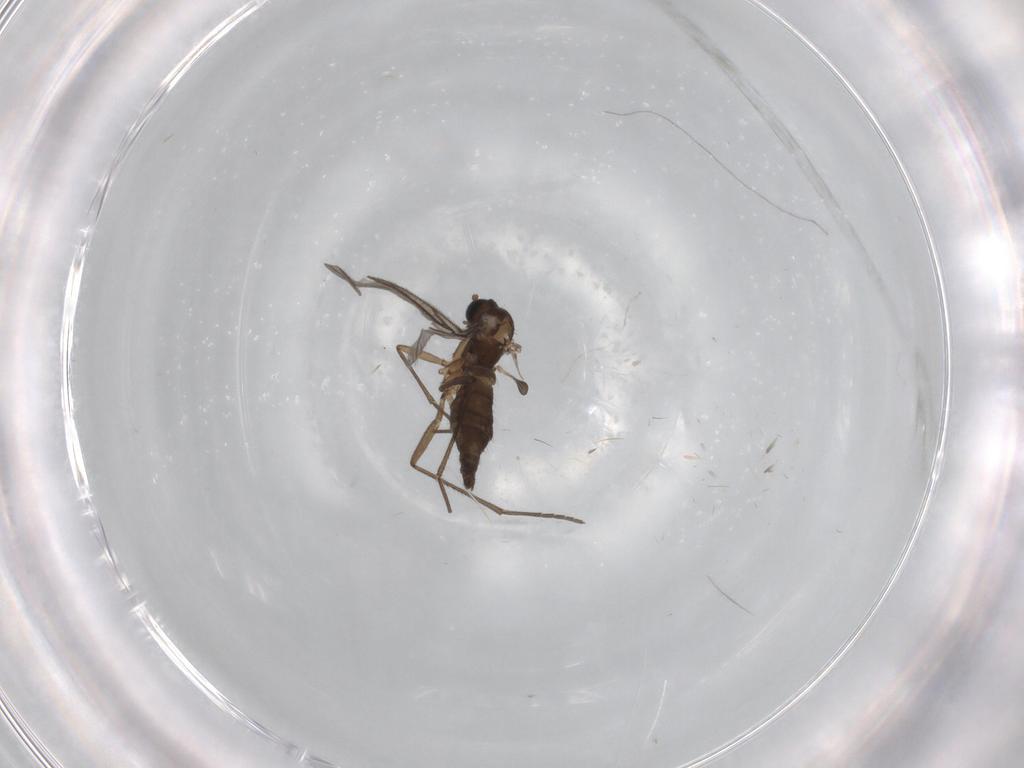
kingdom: Animalia
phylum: Arthropoda
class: Insecta
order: Diptera
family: Sciaridae
